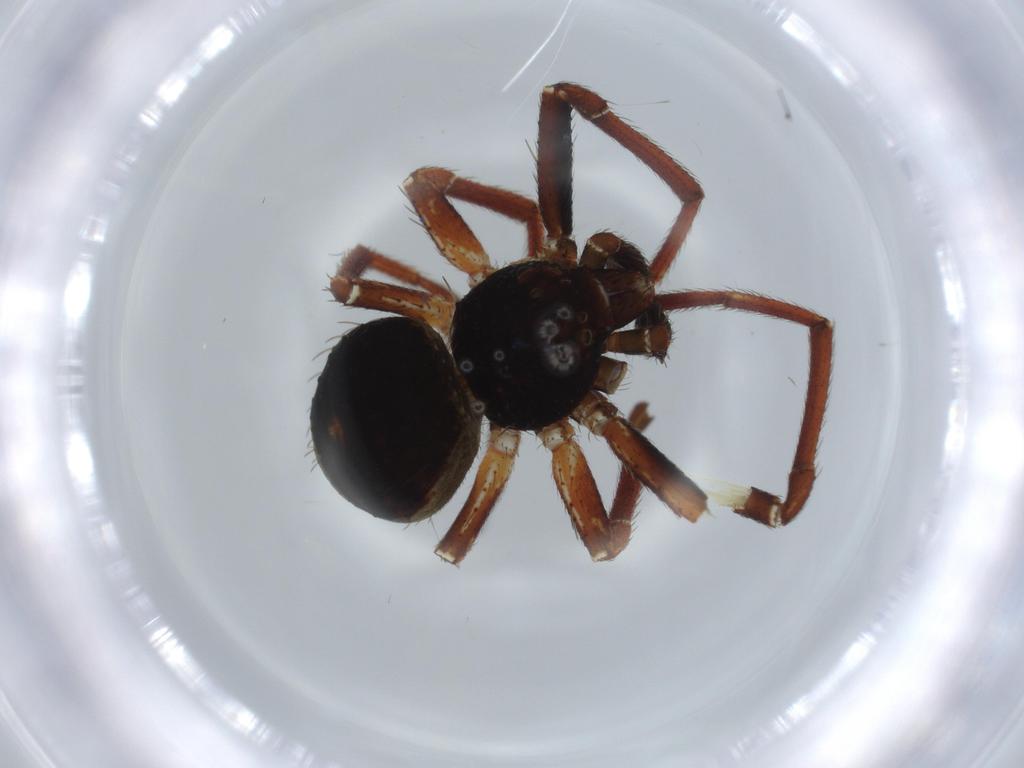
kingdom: Animalia
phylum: Arthropoda
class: Arachnida
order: Araneae
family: Thomisidae
